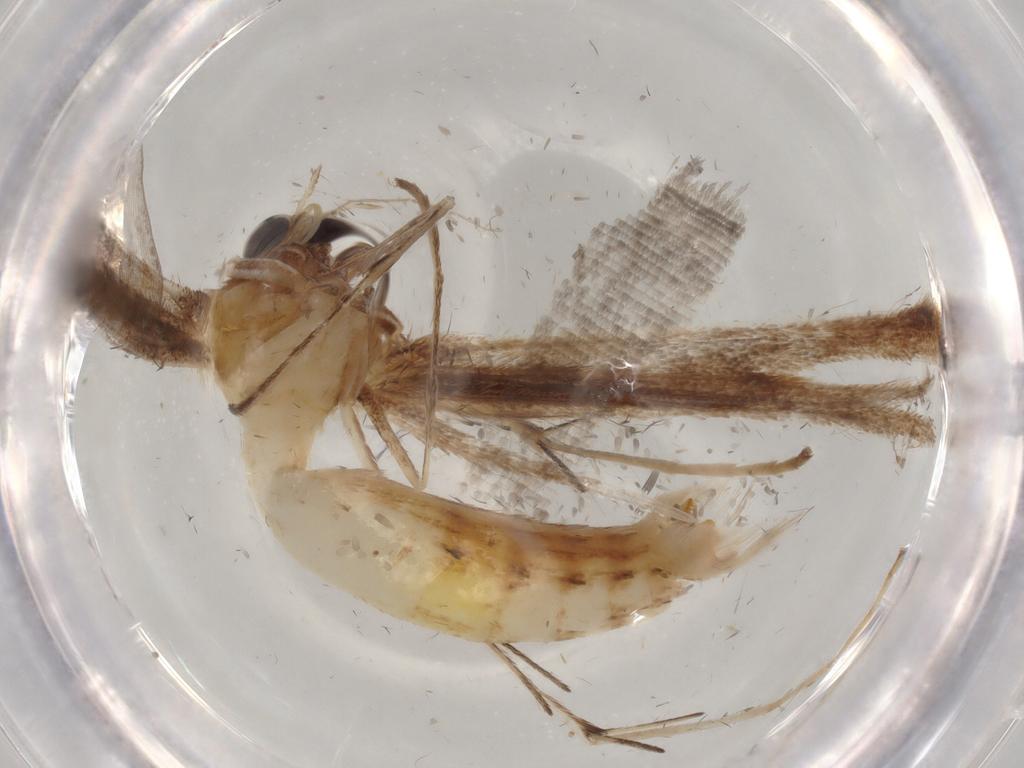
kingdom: Animalia
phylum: Arthropoda
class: Insecta
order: Lepidoptera
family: Pterophoridae
